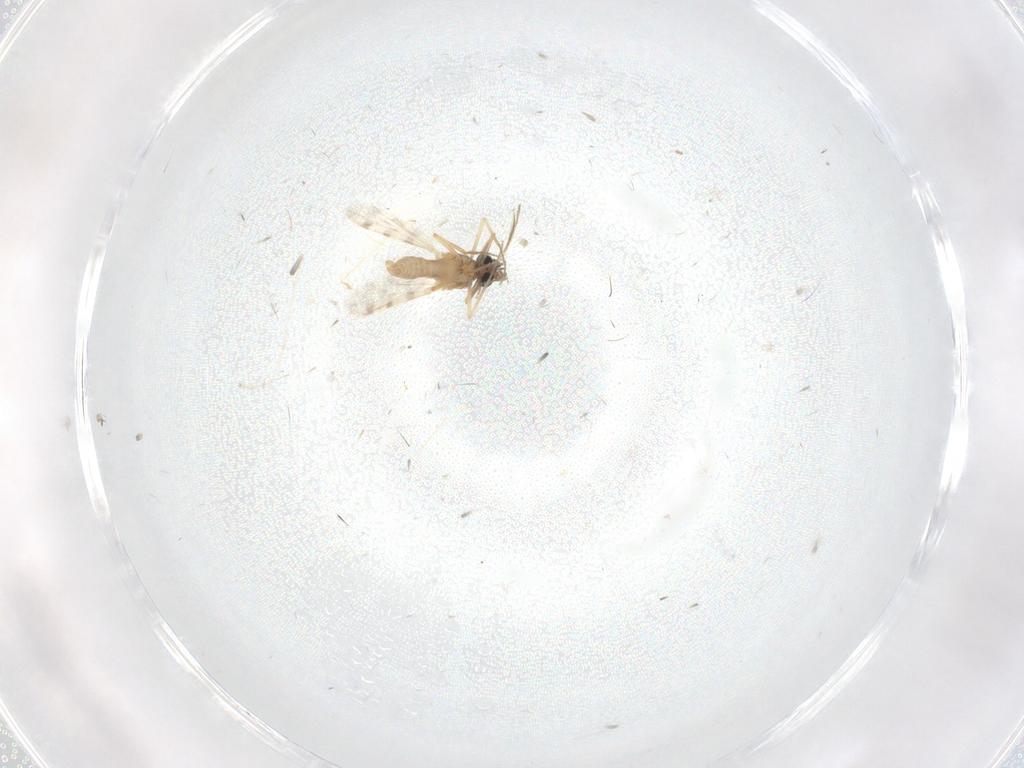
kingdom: Animalia
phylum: Arthropoda
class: Insecta
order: Diptera
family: Ceratopogonidae
